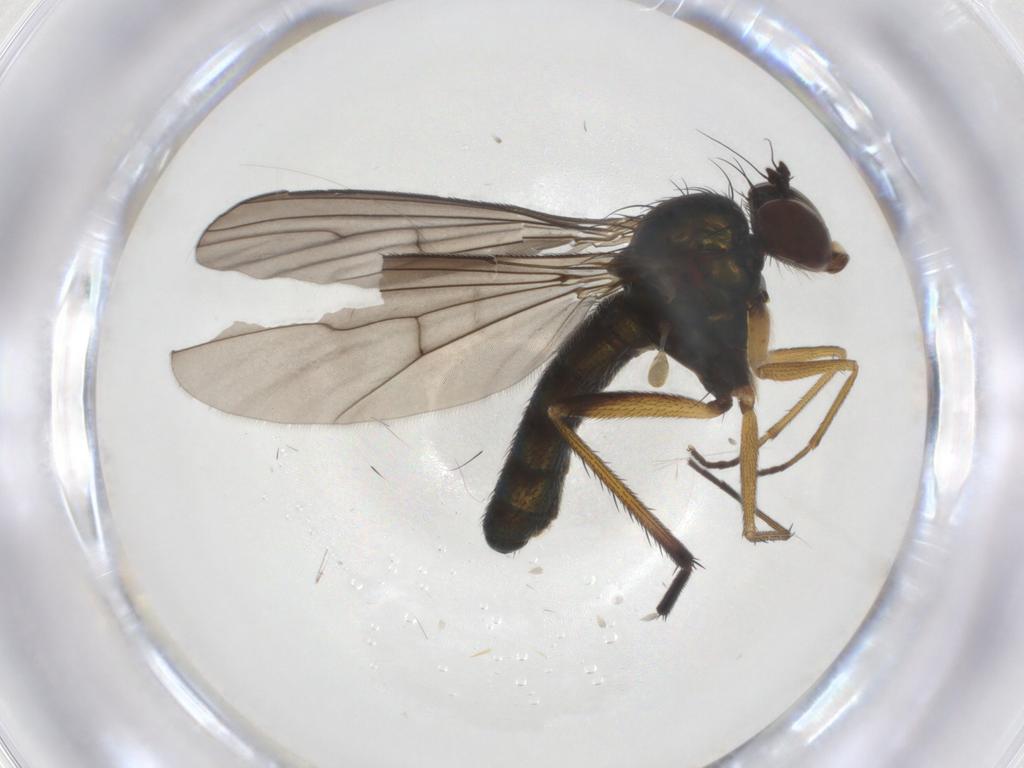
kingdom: Animalia
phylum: Arthropoda
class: Insecta
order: Diptera
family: Dolichopodidae
